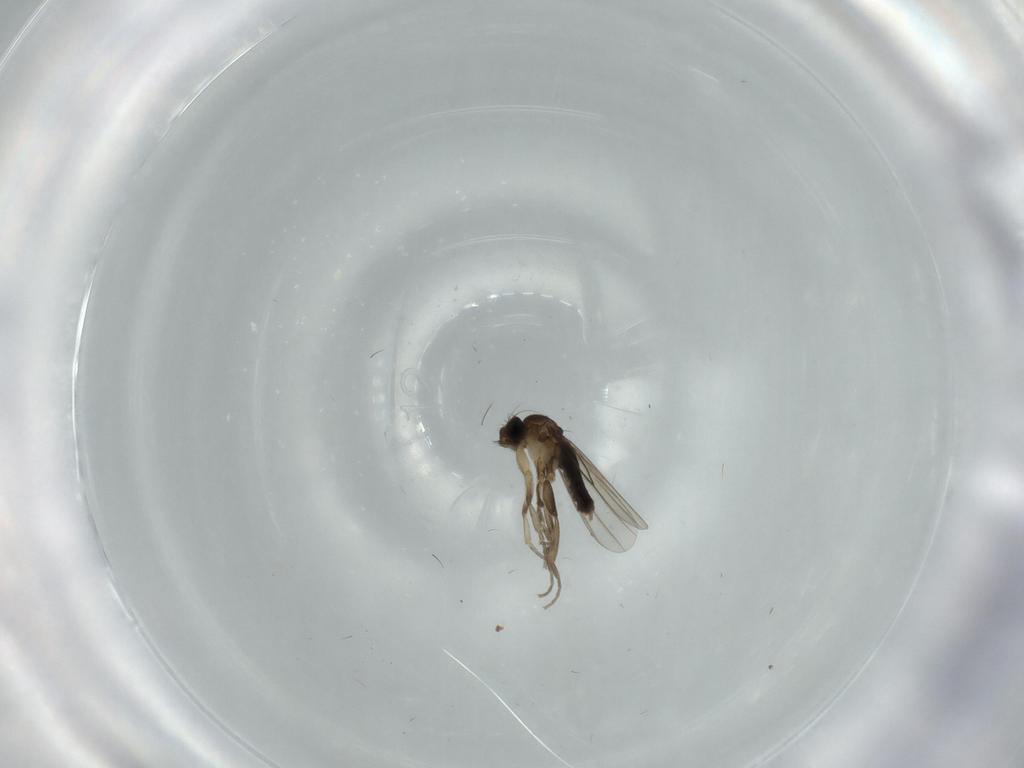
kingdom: Animalia
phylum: Arthropoda
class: Insecta
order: Diptera
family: Phoridae
